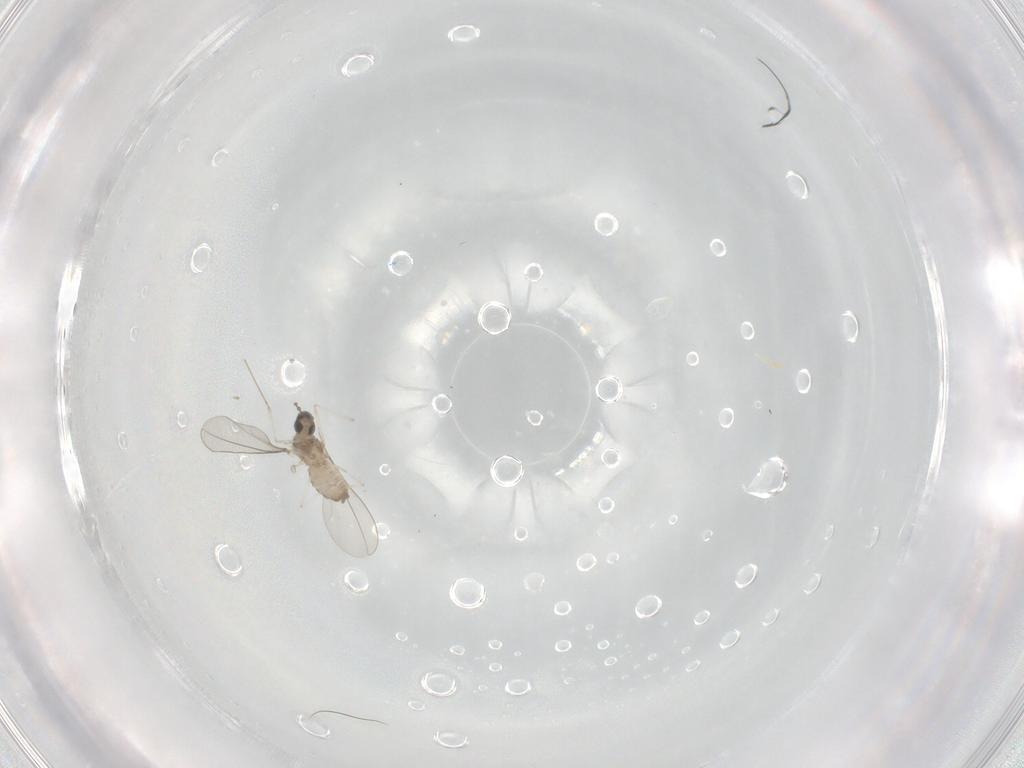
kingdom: Animalia
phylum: Arthropoda
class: Insecta
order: Diptera
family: Cecidomyiidae
